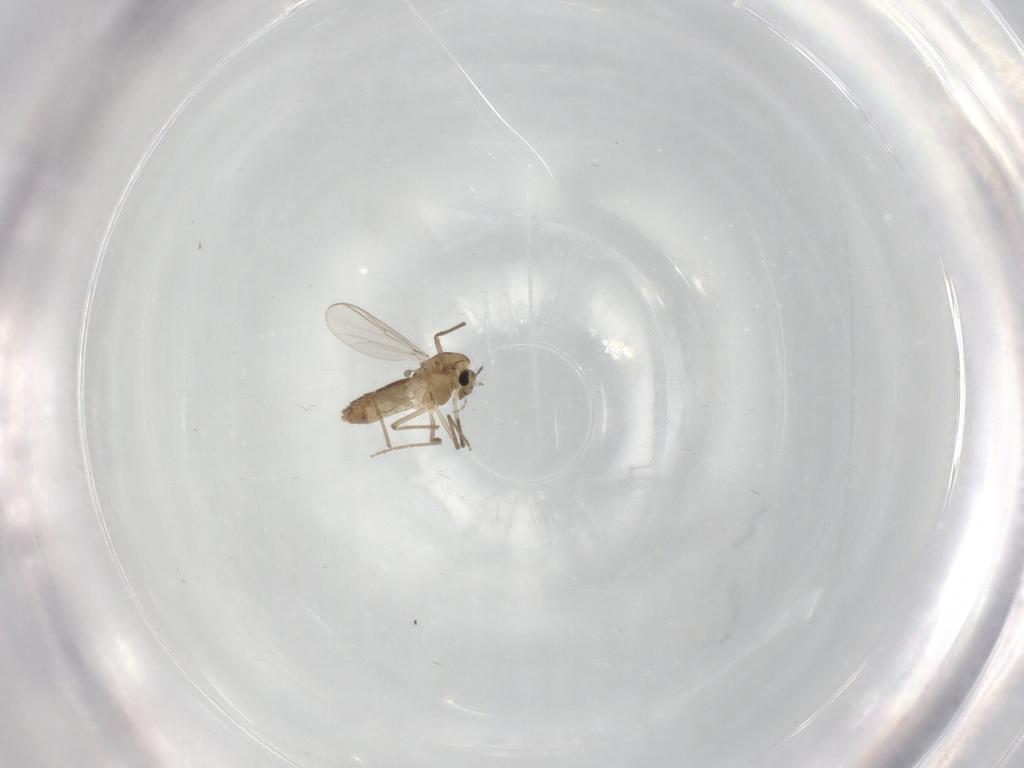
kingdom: Animalia
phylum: Arthropoda
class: Insecta
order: Diptera
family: Chironomidae
